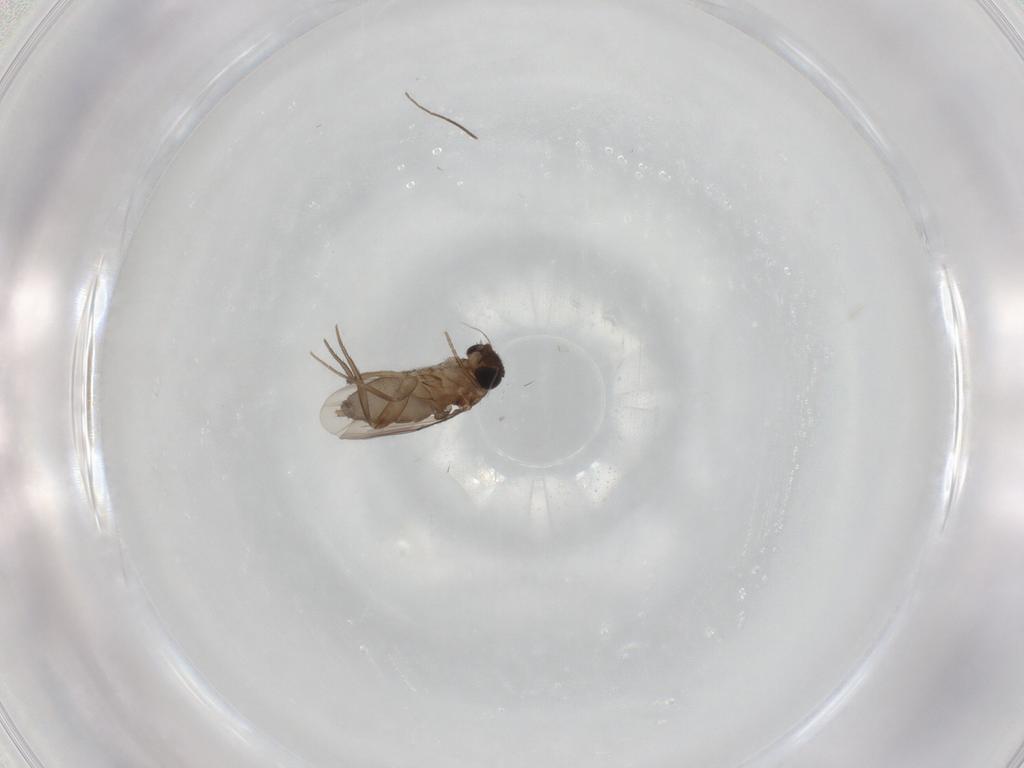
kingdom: Animalia
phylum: Arthropoda
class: Insecta
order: Diptera
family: Phoridae
